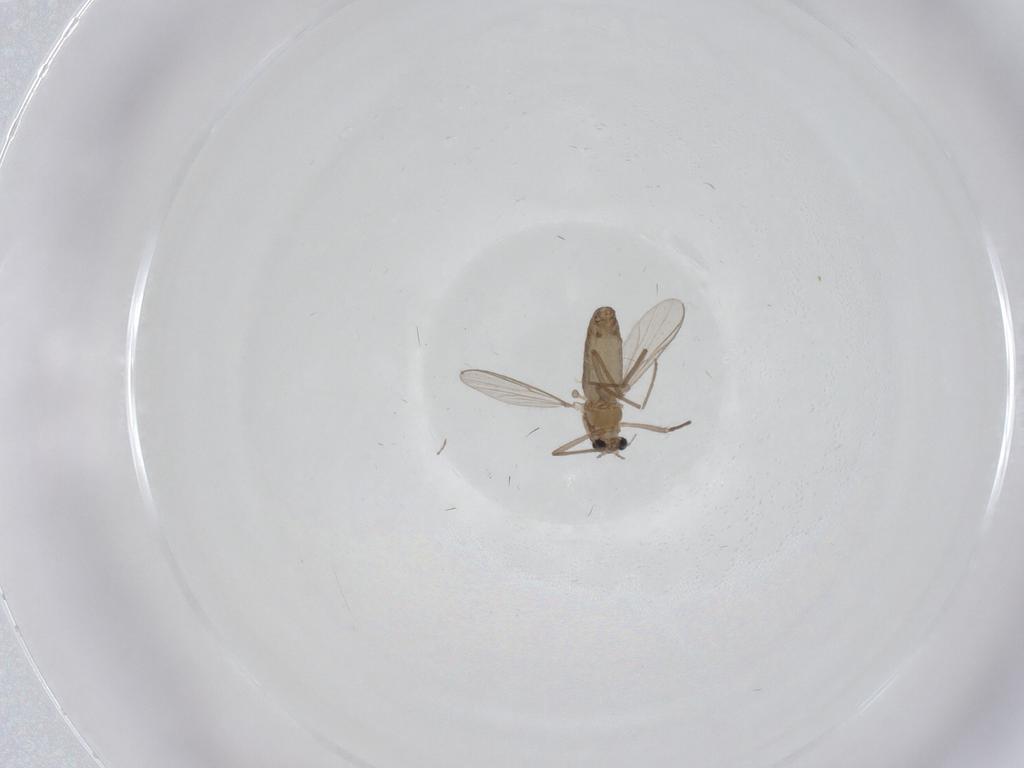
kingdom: Animalia
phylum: Arthropoda
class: Insecta
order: Diptera
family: Chironomidae
